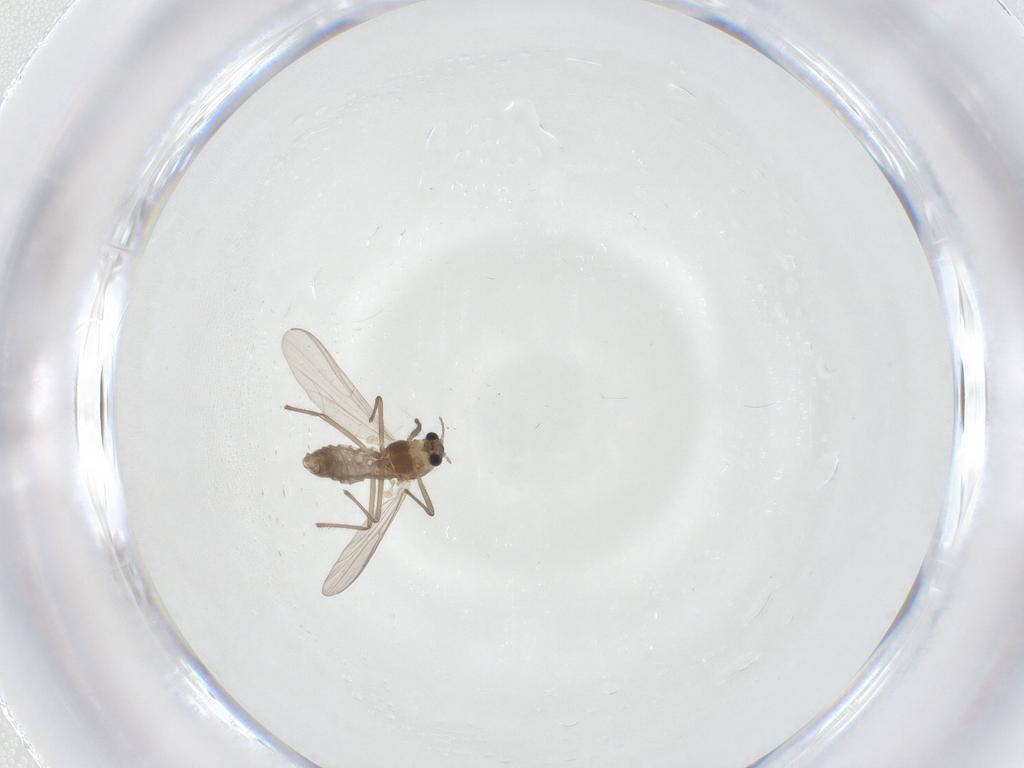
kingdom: Animalia
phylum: Arthropoda
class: Insecta
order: Diptera
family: Chironomidae
